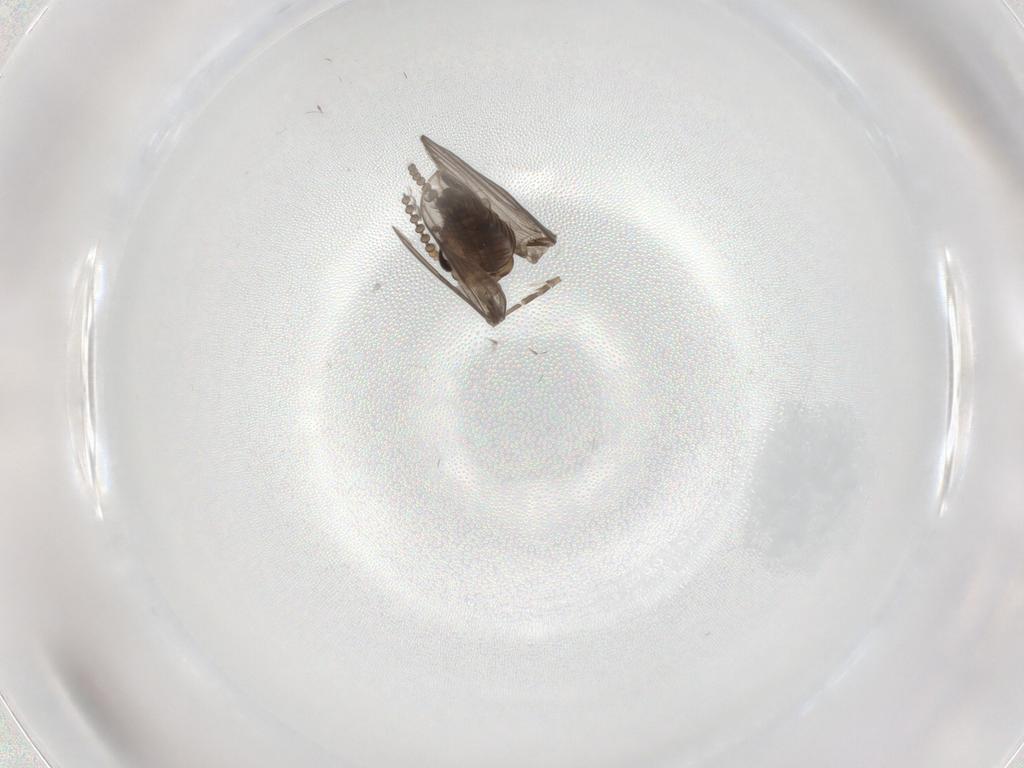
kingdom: Animalia
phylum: Arthropoda
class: Insecta
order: Diptera
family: Psychodidae
